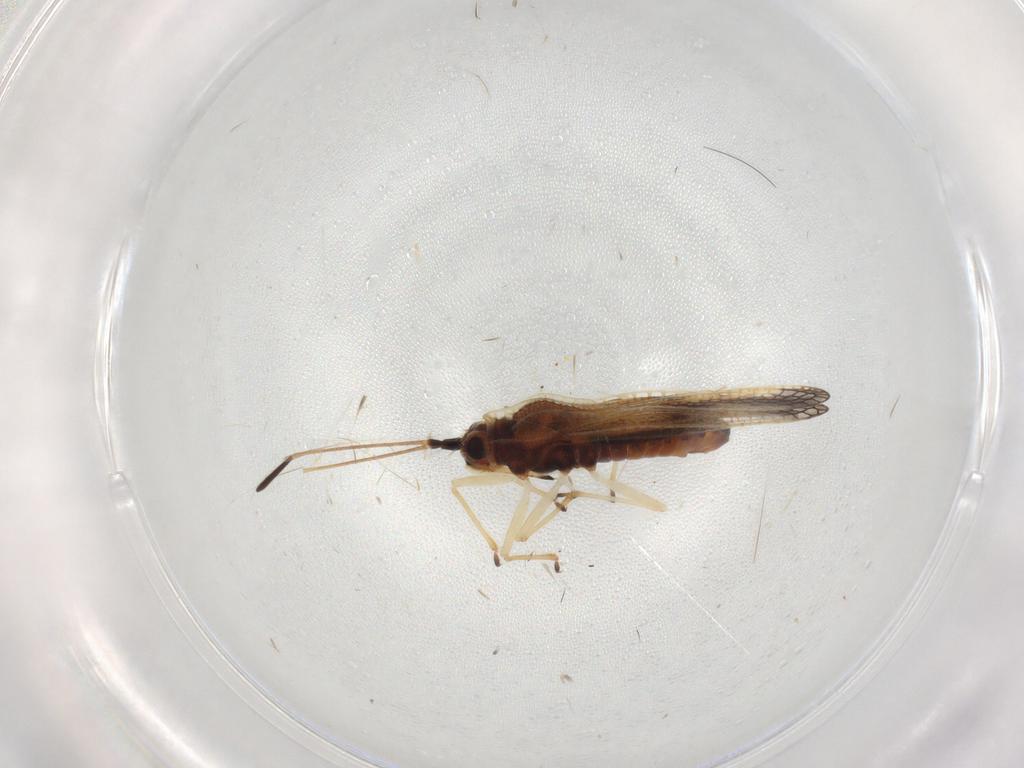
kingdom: Animalia
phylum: Arthropoda
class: Insecta
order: Hemiptera
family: Tingidae
